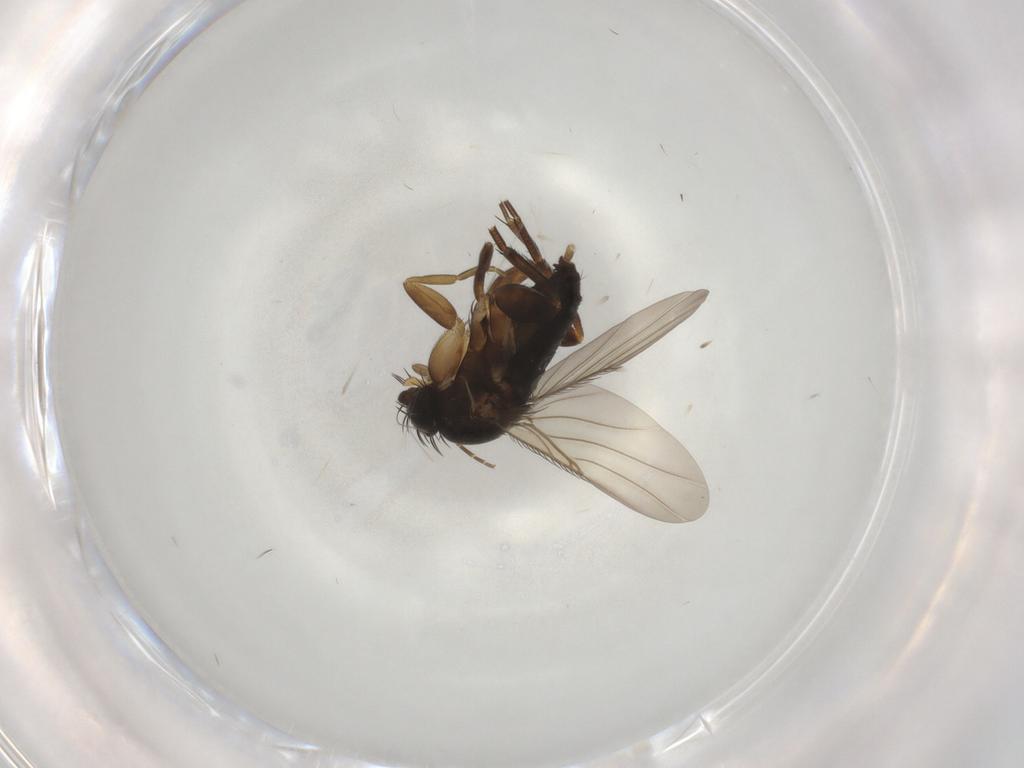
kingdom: Animalia
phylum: Arthropoda
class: Insecta
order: Diptera
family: Phoridae
